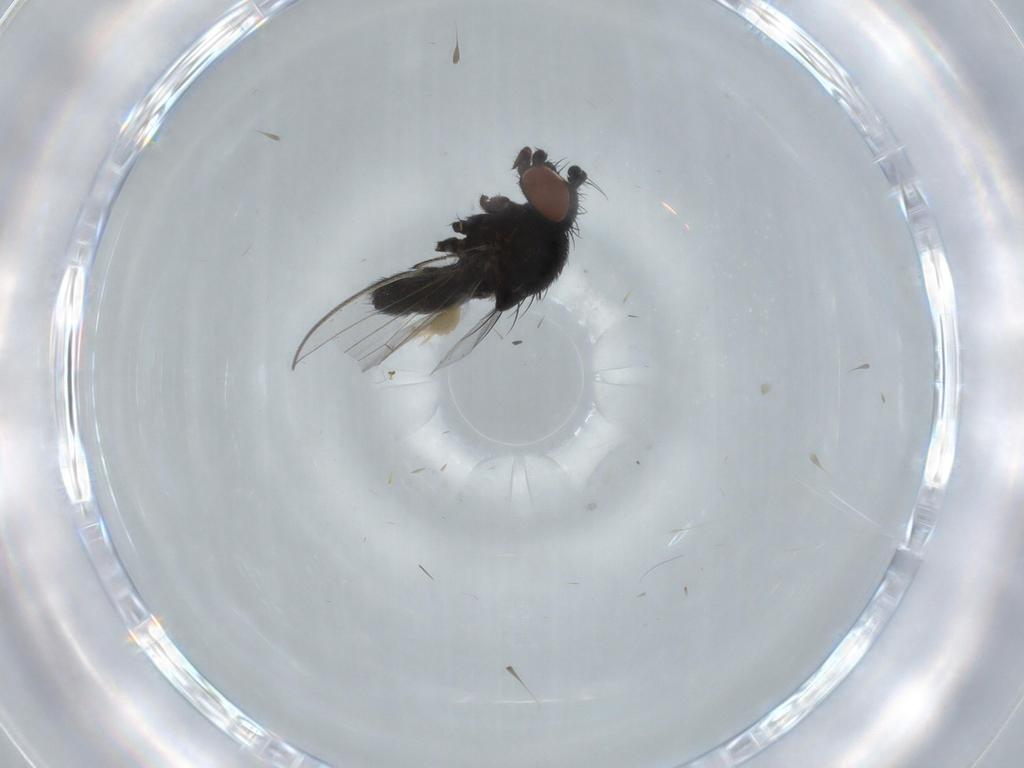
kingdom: Animalia
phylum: Arthropoda
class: Insecta
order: Diptera
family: Milichiidae
